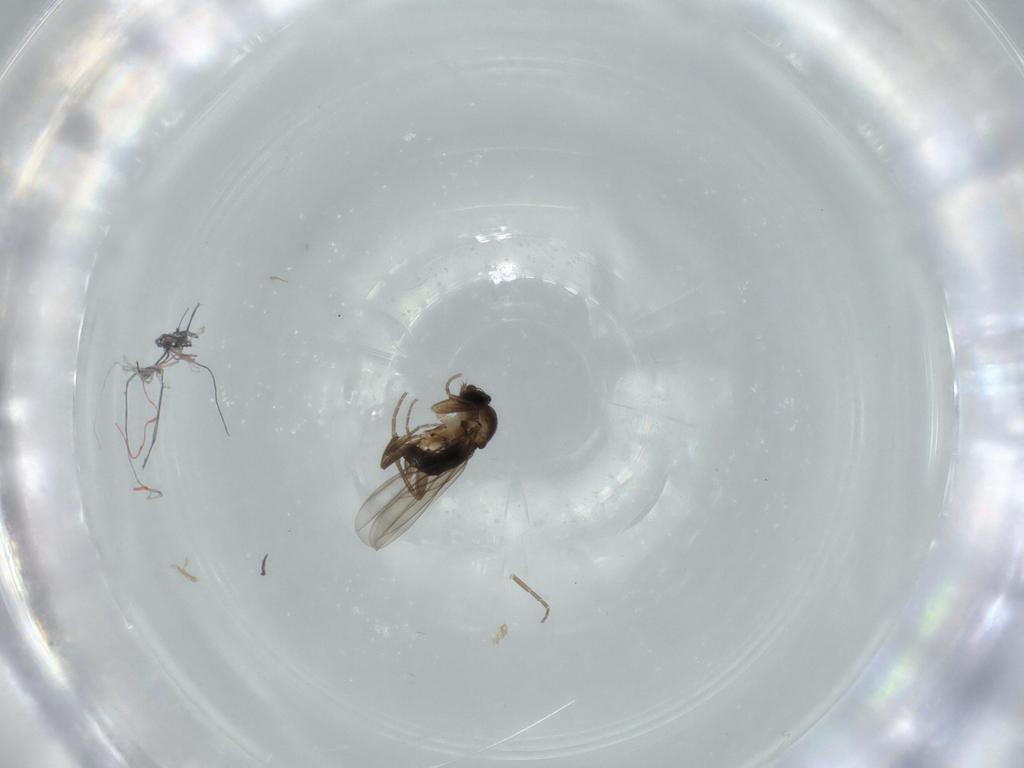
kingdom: Animalia
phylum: Arthropoda
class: Insecta
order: Diptera
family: Phoridae
